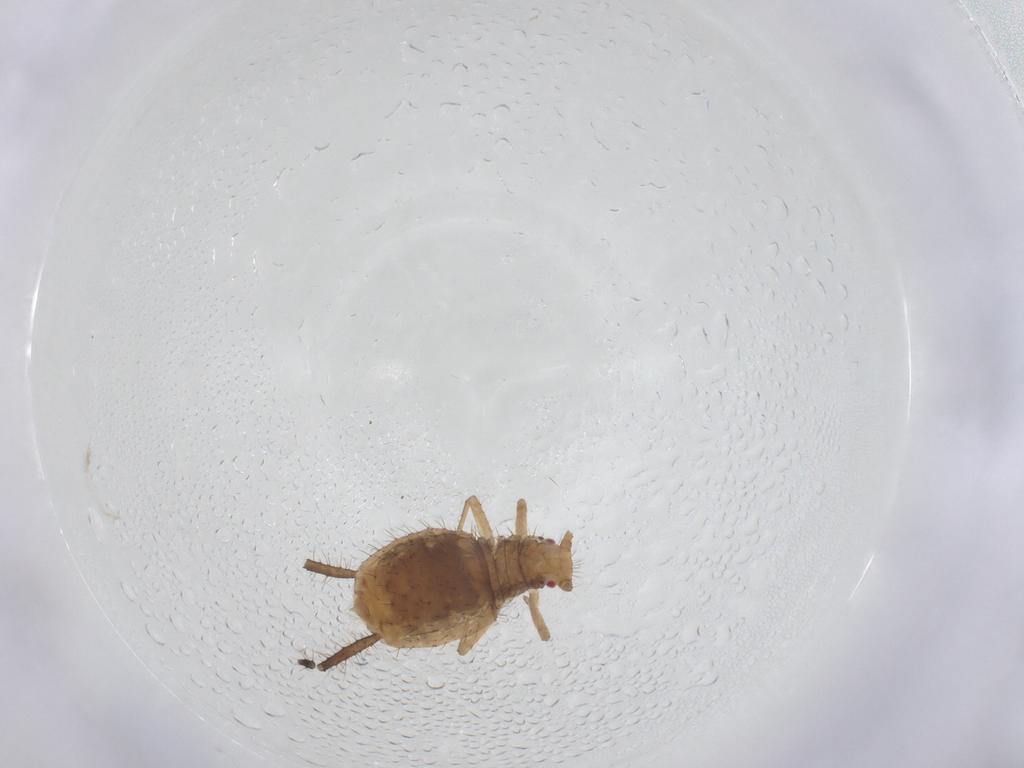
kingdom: Animalia
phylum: Arthropoda
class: Insecta
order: Hemiptera
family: Aphididae
